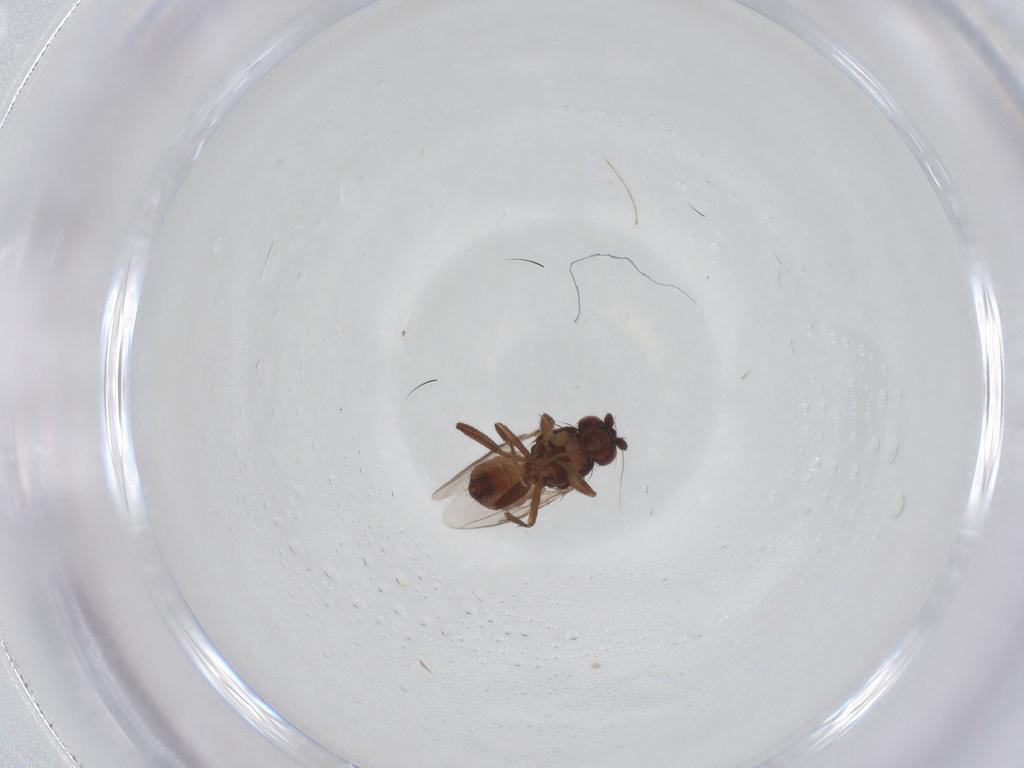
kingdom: Animalia
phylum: Arthropoda
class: Insecta
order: Diptera
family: Sphaeroceridae
